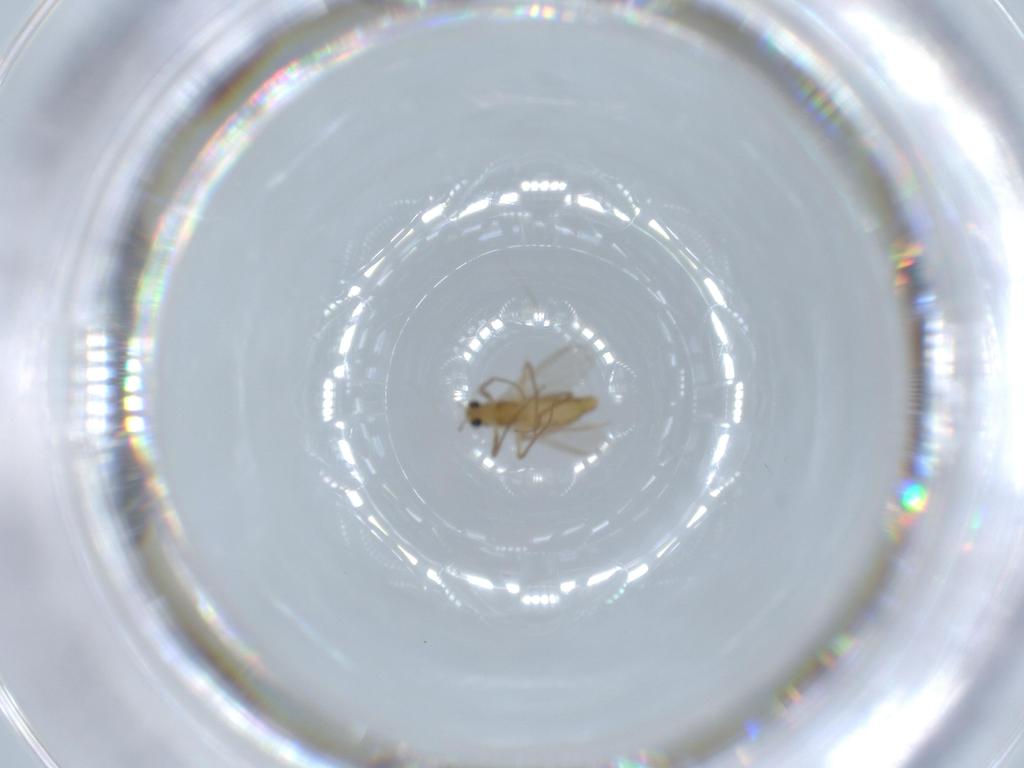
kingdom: Animalia
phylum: Arthropoda
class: Insecta
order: Diptera
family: Chironomidae
